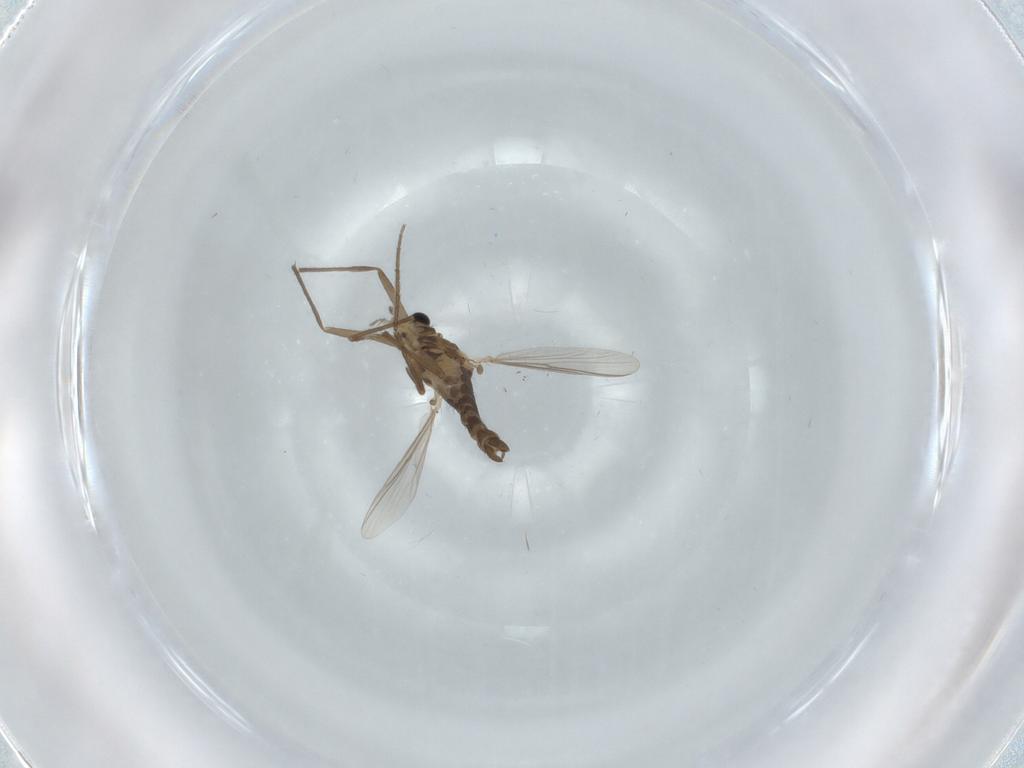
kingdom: Animalia
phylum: Arthropoda
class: Insecta
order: Diptera
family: Chironomidae
